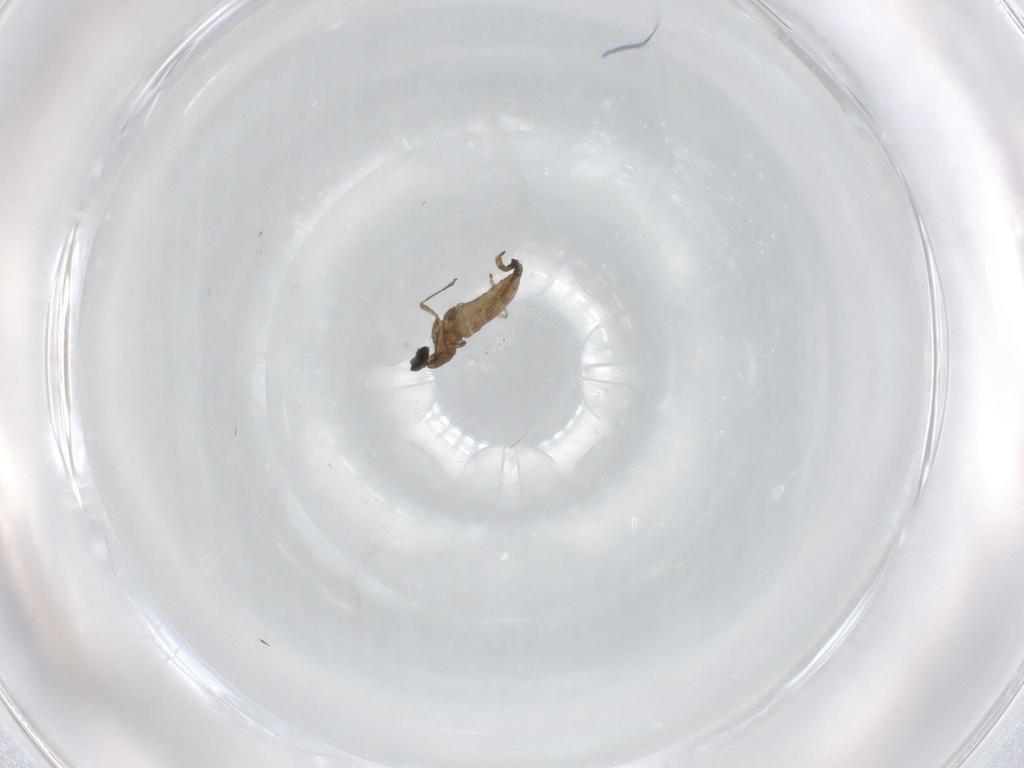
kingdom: Animalia
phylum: Arthropoda
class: Insecta
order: Diptera
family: Cecidomyiidae
